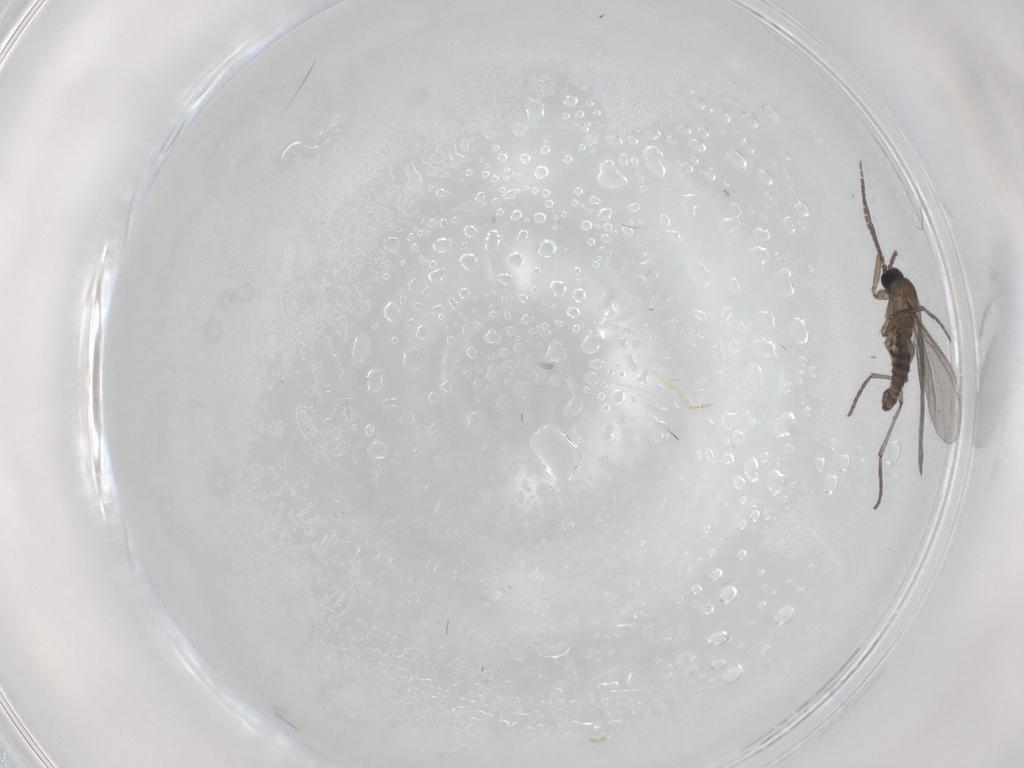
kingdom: Animalia
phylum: Arthropoda
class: Insecta
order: Diptera
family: Sciaridae
